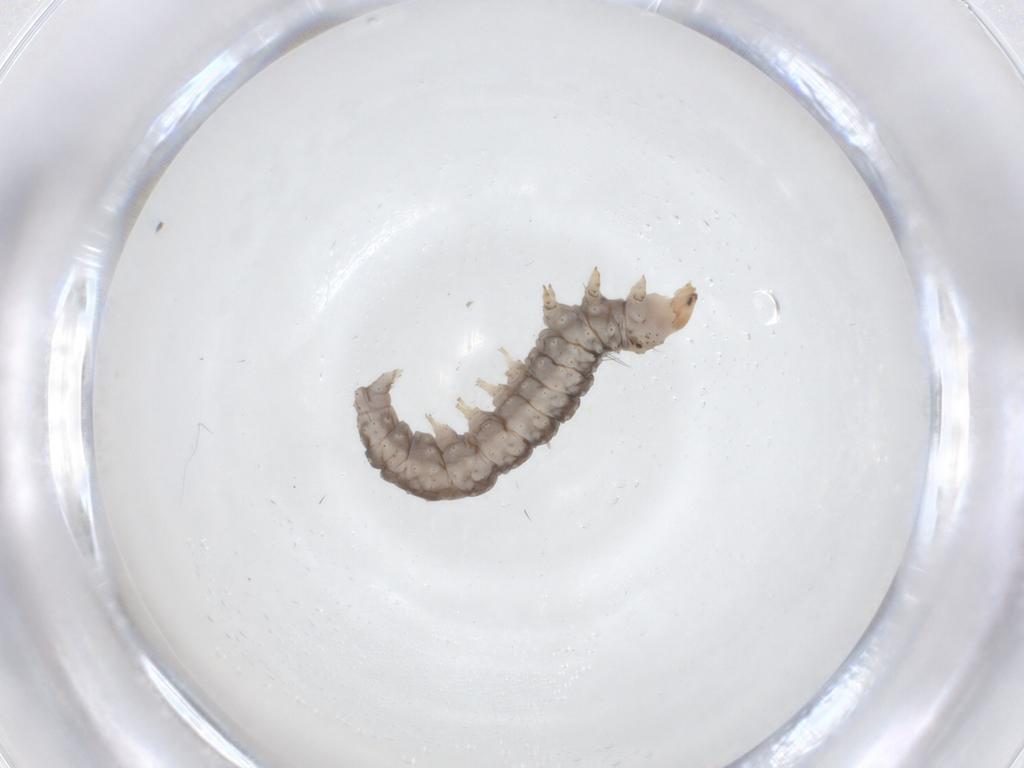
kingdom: Animalia
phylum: Arthropoda
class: Insecta
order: Lepidoptera
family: Bucculatricidae
